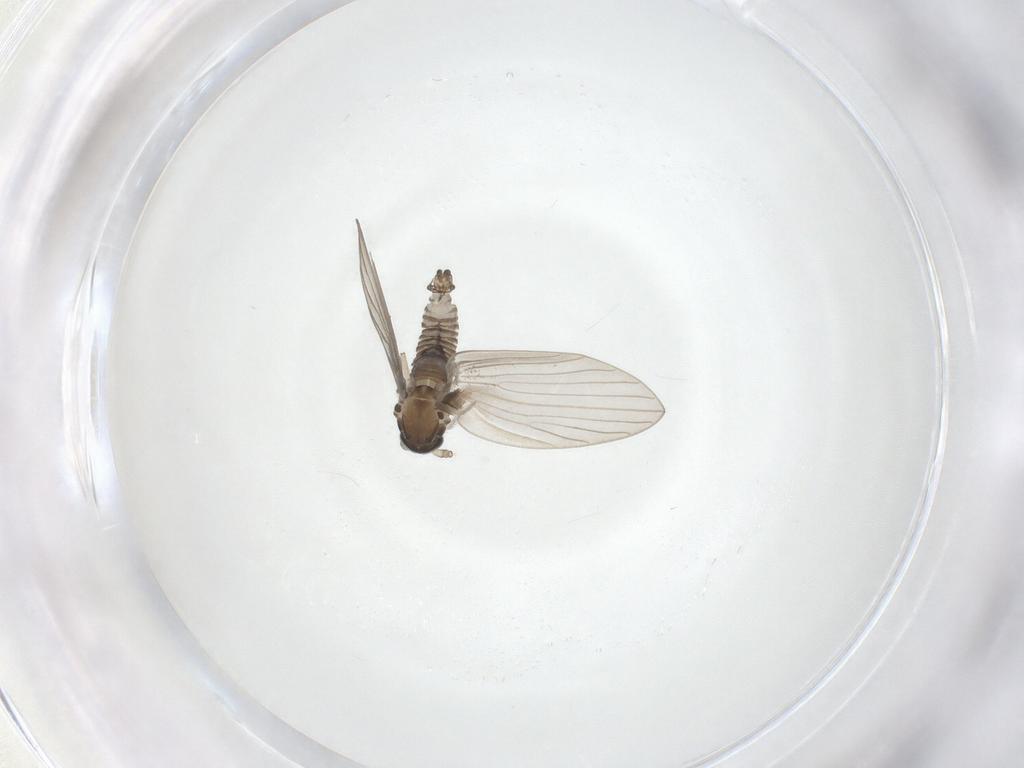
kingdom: Animalia
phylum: Arthropoda
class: Insecta
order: Diptera
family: Psychodidae
